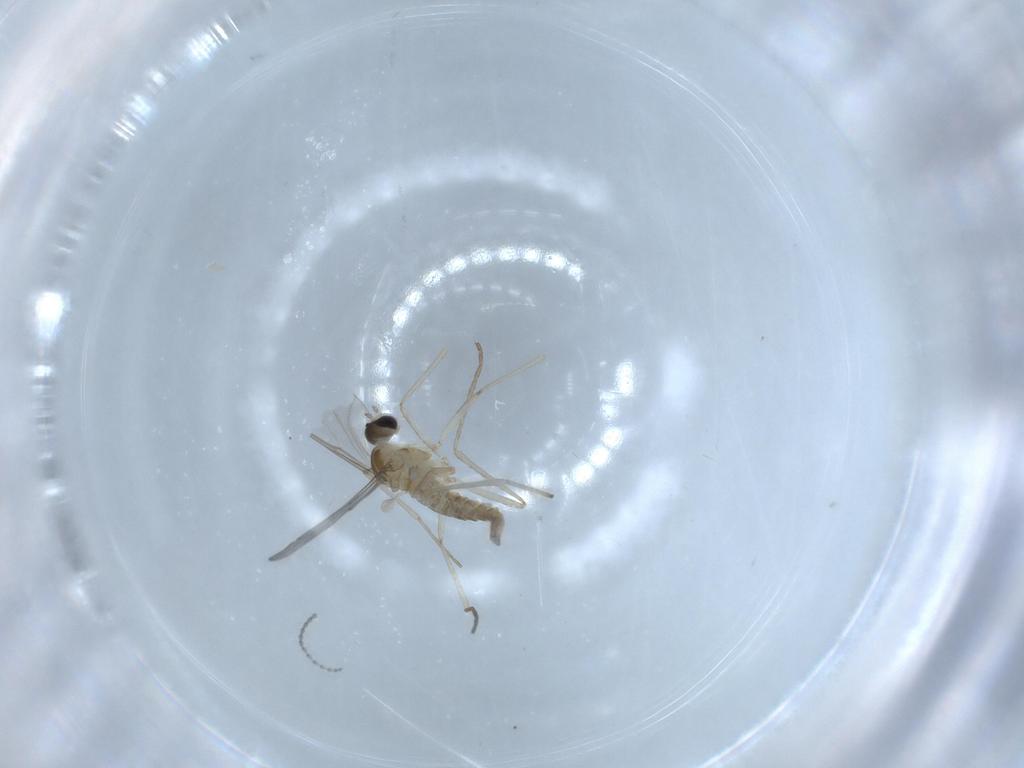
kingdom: Animalia
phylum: Arthropoda
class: Insecta
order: Diptera
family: Cecidomyiidae
